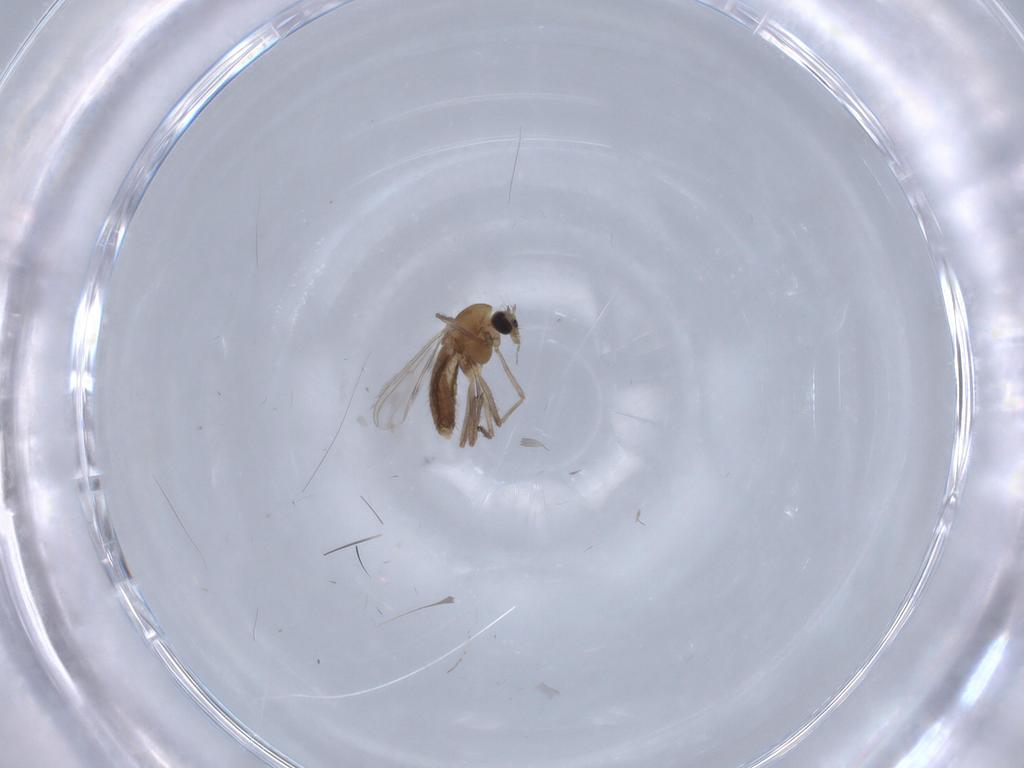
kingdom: Animalia
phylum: Arthropoda
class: Insecta
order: Diptera
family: Chironomidae
